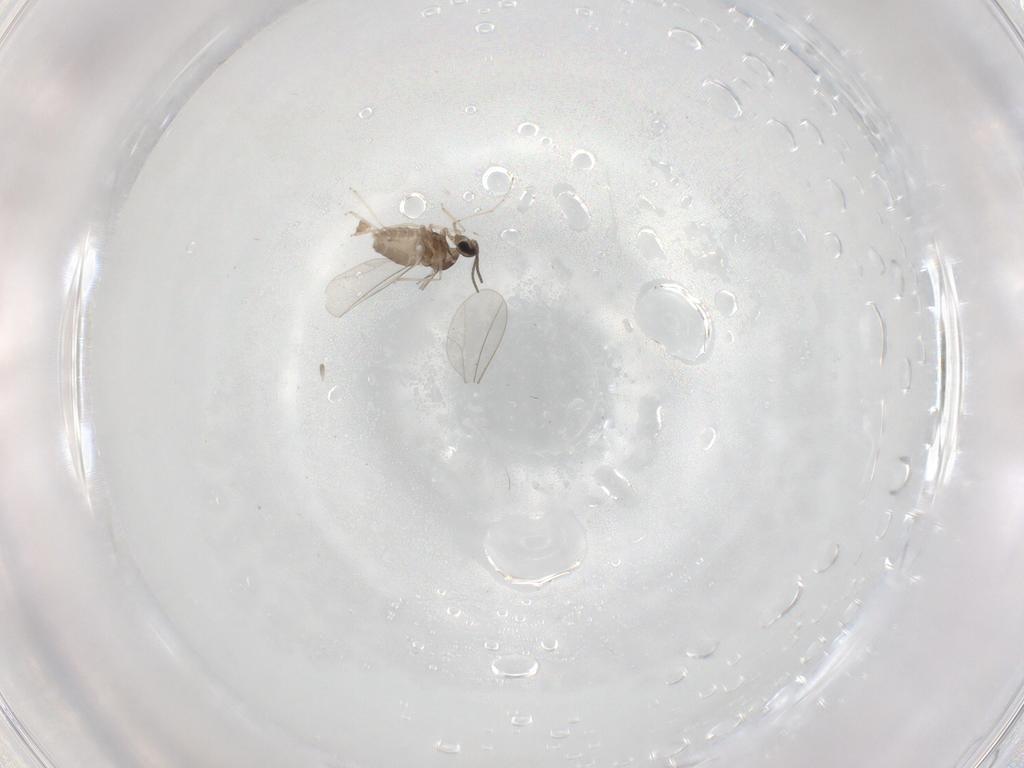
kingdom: Animalia
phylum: Arthropoda
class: Insecta
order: Diptera
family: Cecidomyiidae
